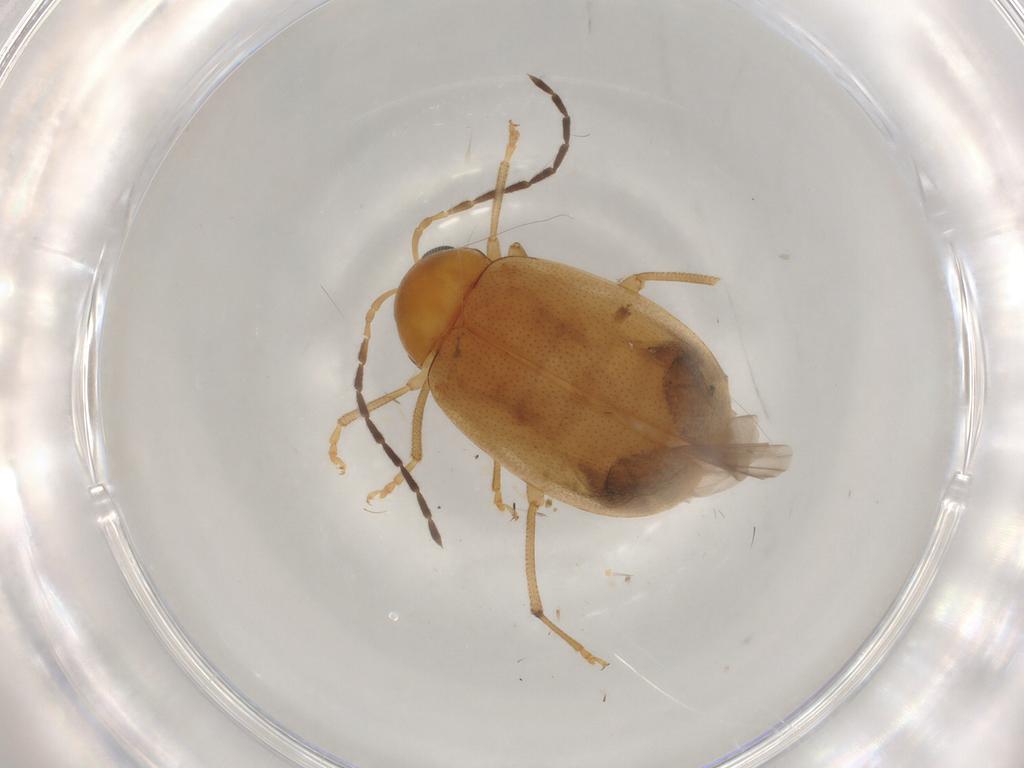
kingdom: Animalia
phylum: Arthropoda
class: Insecta
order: Coleoptera
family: Chrysomelidae
